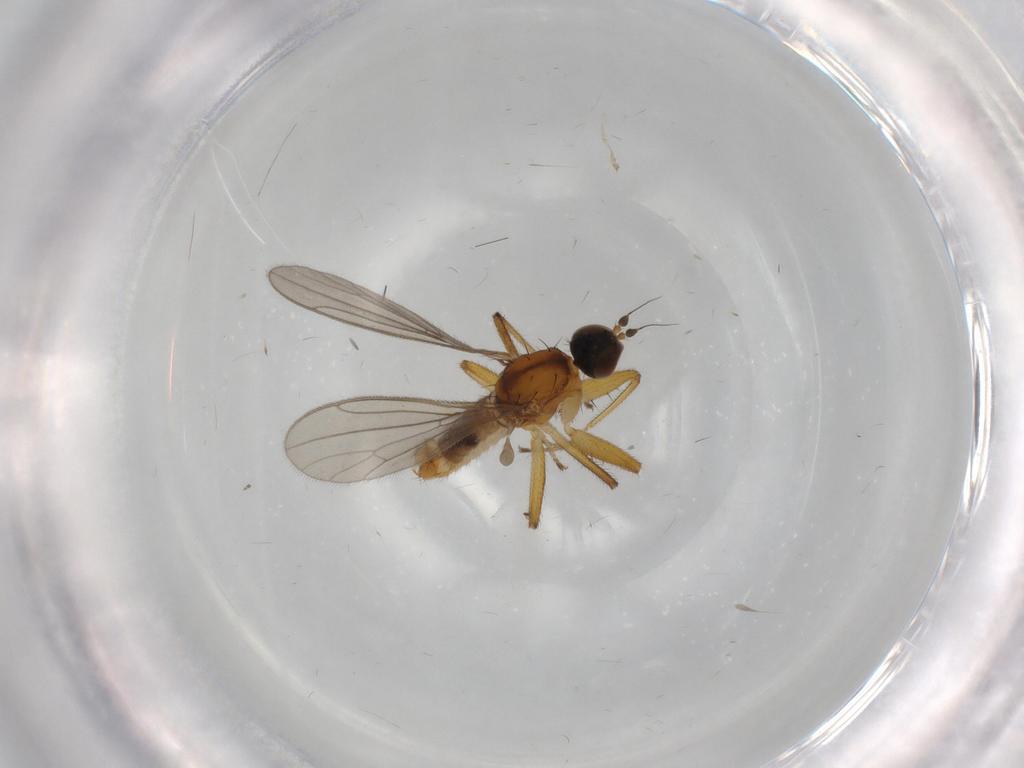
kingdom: Animalia
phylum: Arthropoda
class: Insecta
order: Diptera
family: Empididae
